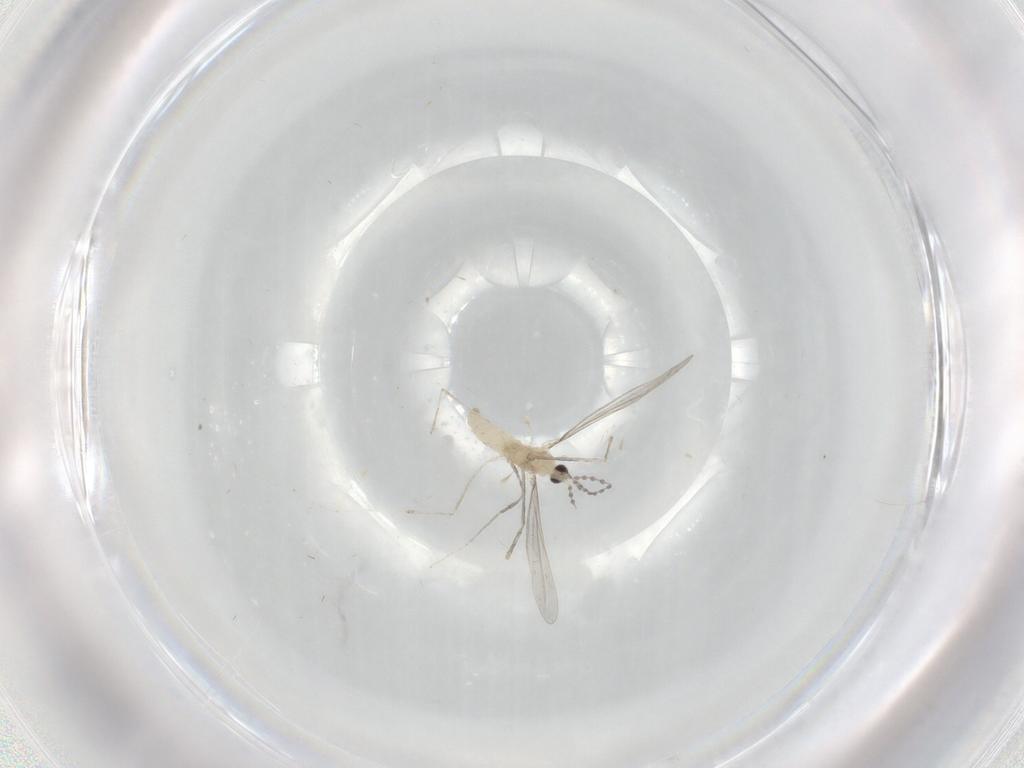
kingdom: Animalia
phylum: Arthropoda
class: Insecta
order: Diptera
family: Cecidomyiidae
